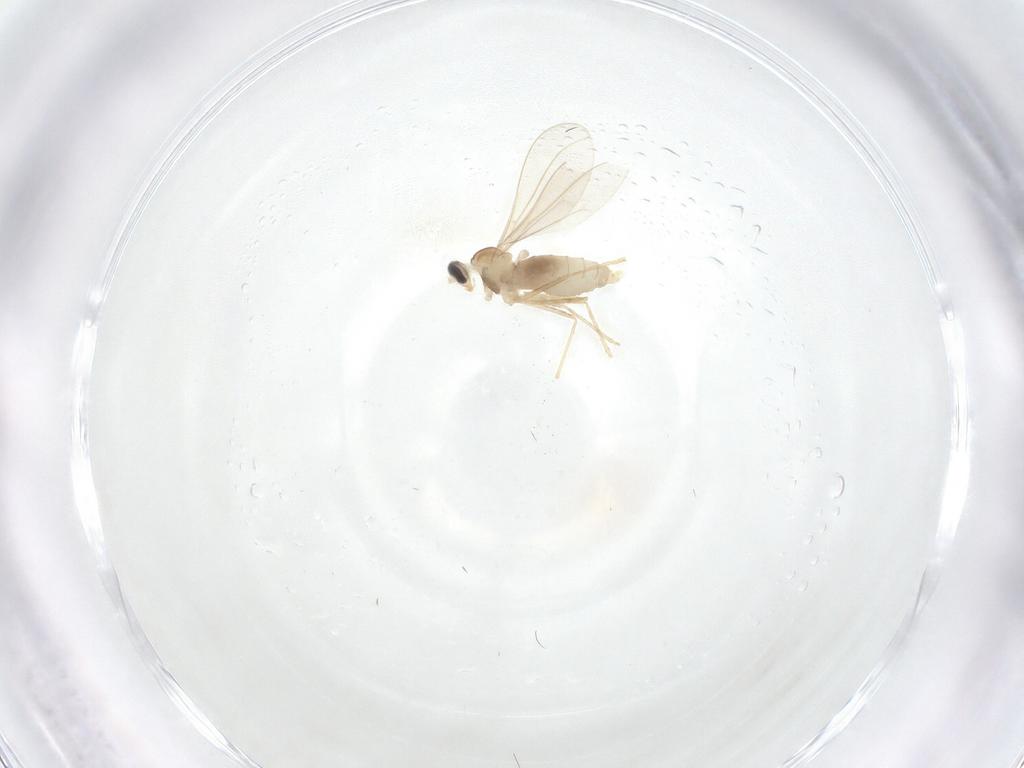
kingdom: Animalia
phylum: Arthropoda
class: Insecta
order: Diptera
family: Cecidomyiidae
